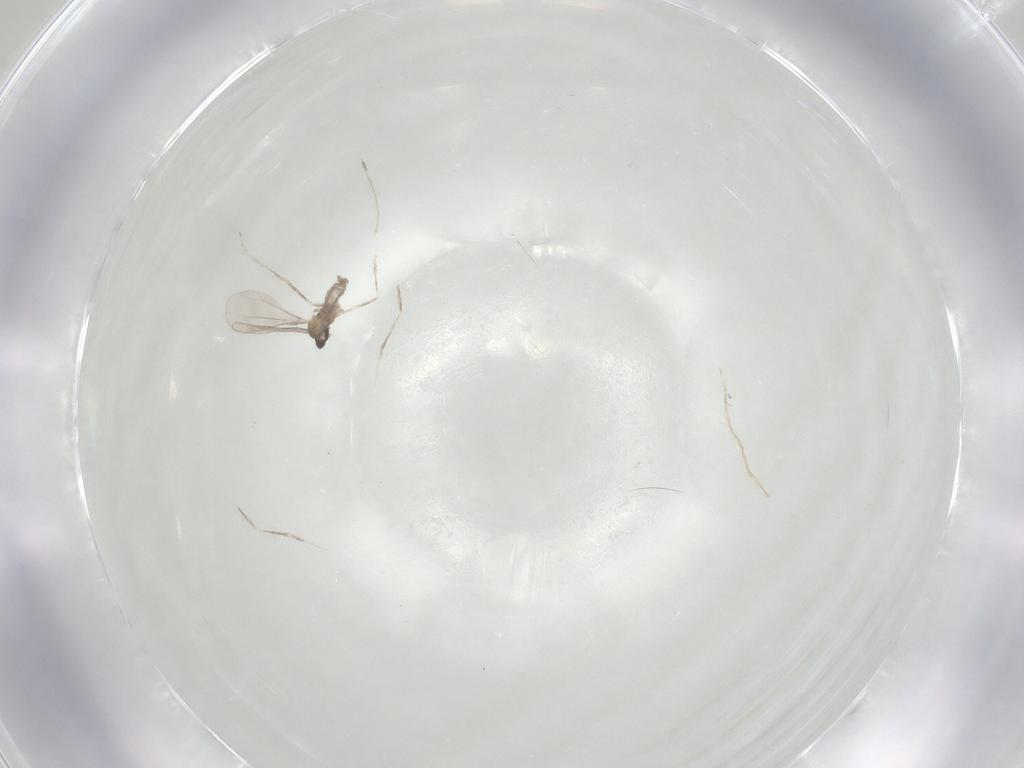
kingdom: Animalia
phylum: Arthropoda
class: Insecta
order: Diptera
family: Cecidomyiidae
